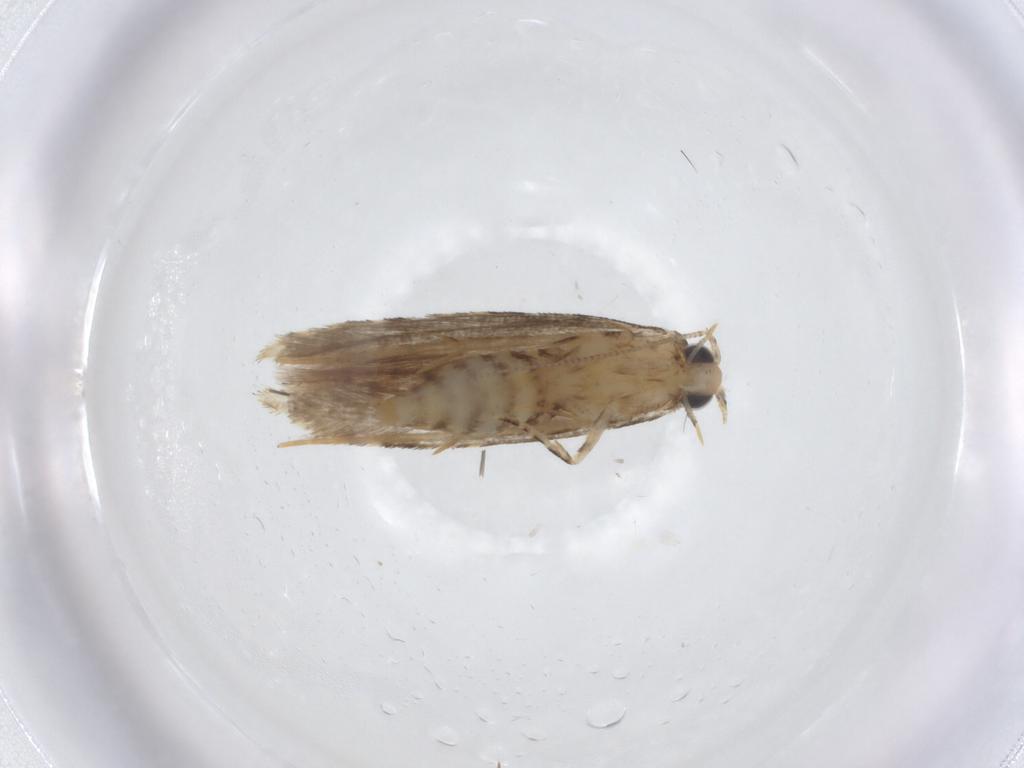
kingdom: Animalia
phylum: Arthropoda
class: Insecta
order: Lepidoptera
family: Tineidae
